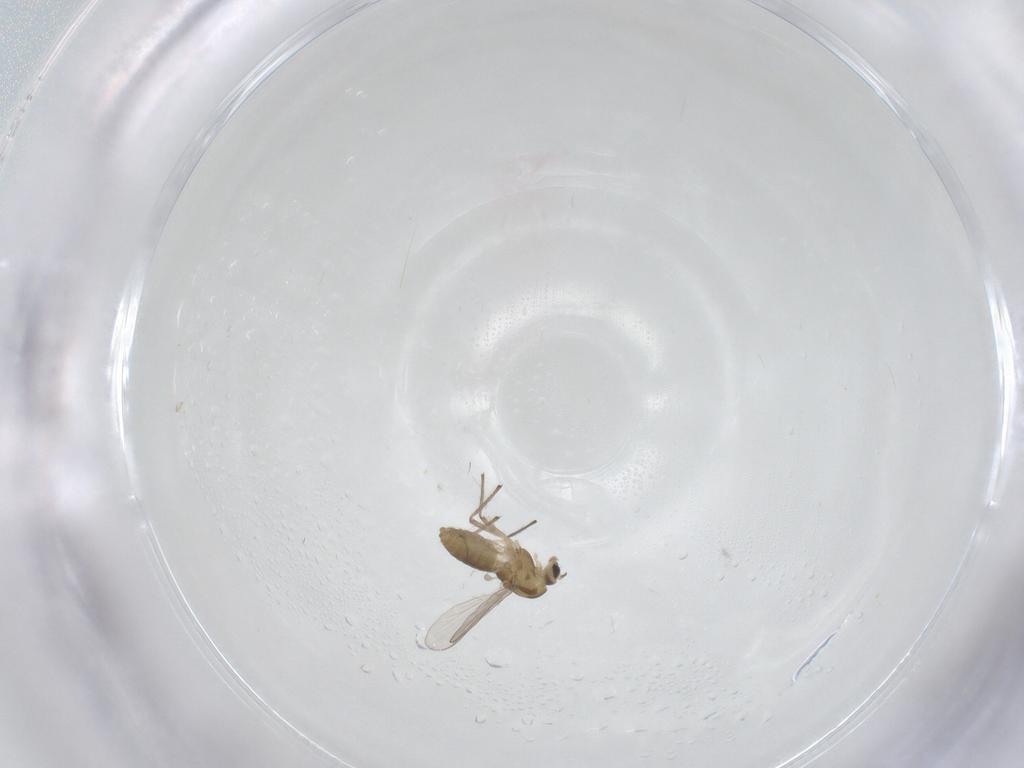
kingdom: Animalia
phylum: Arthropoda
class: Insecta
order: Diptera
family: Chironomidae
